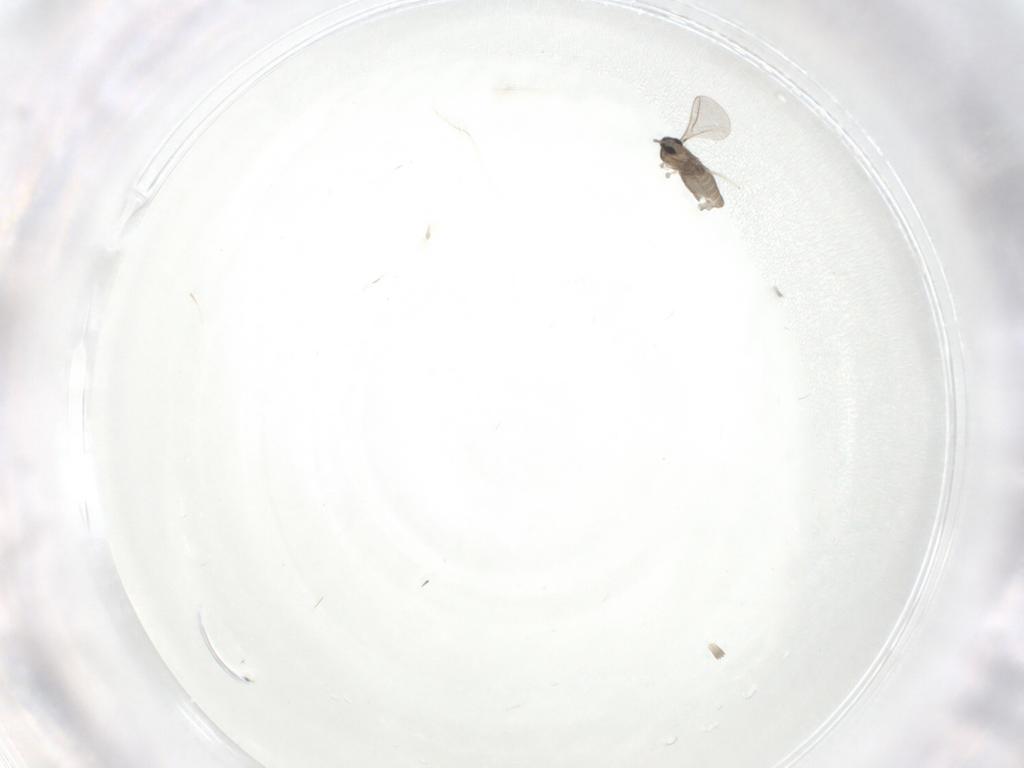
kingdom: Animalia
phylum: Arthropoda
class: Insecta
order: Diptera
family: Cecidomyiidae
